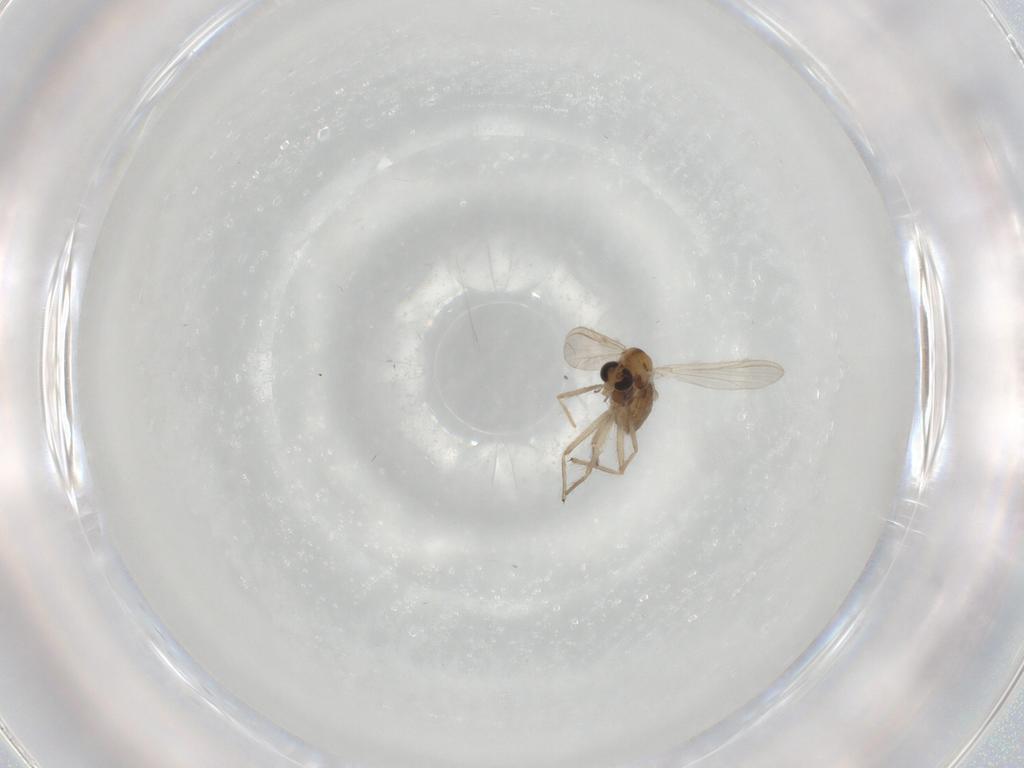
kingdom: Animalia
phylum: Arthropoda
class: Insecta
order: Diptera
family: Chironomidae
